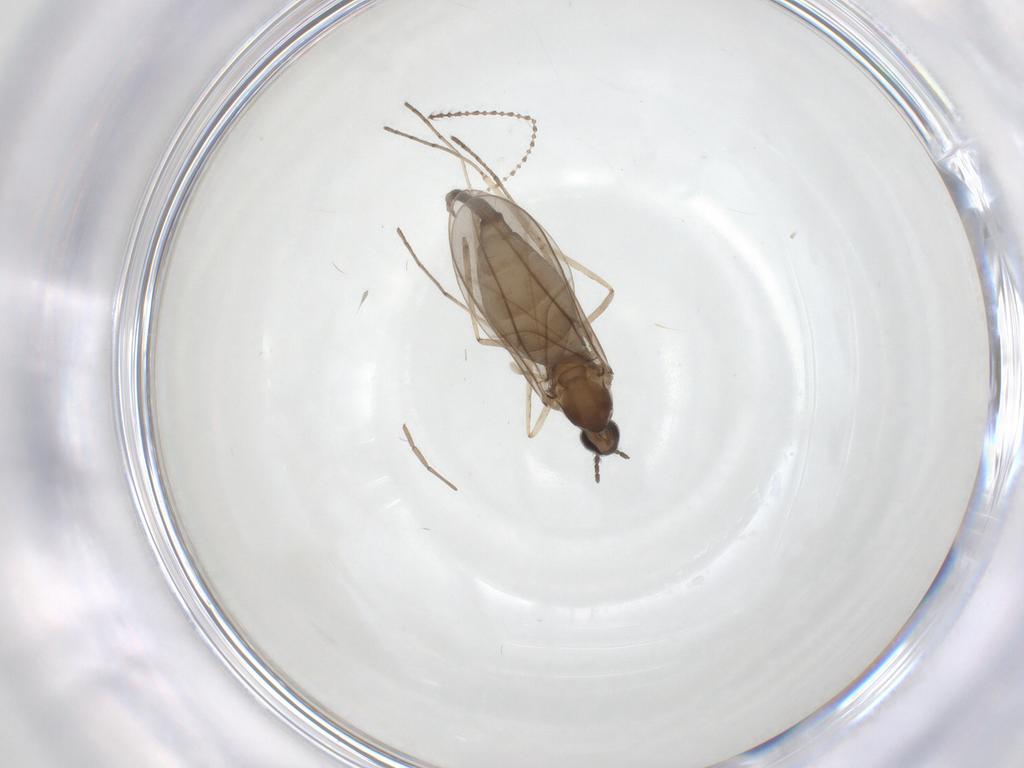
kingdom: Animalia
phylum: Arthropoda
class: Insecta
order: Diptera
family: Cecidomyiidae
